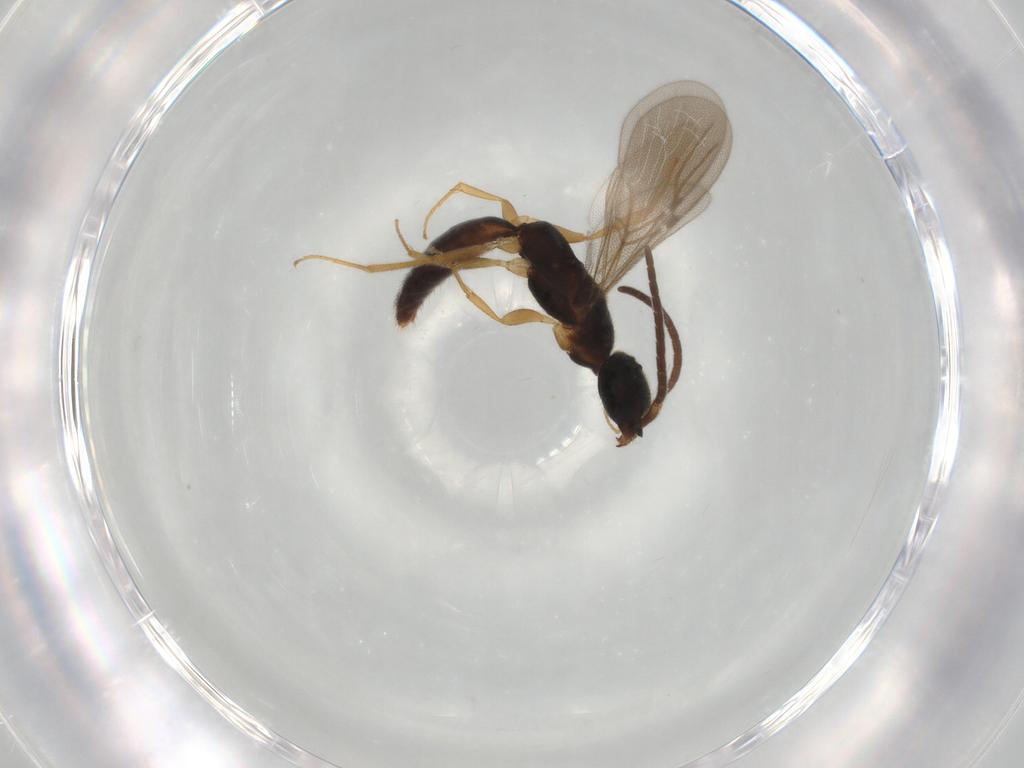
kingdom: Animalia
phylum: Arthropoda
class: Insecta
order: Hymenoptera
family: Bethylidae
